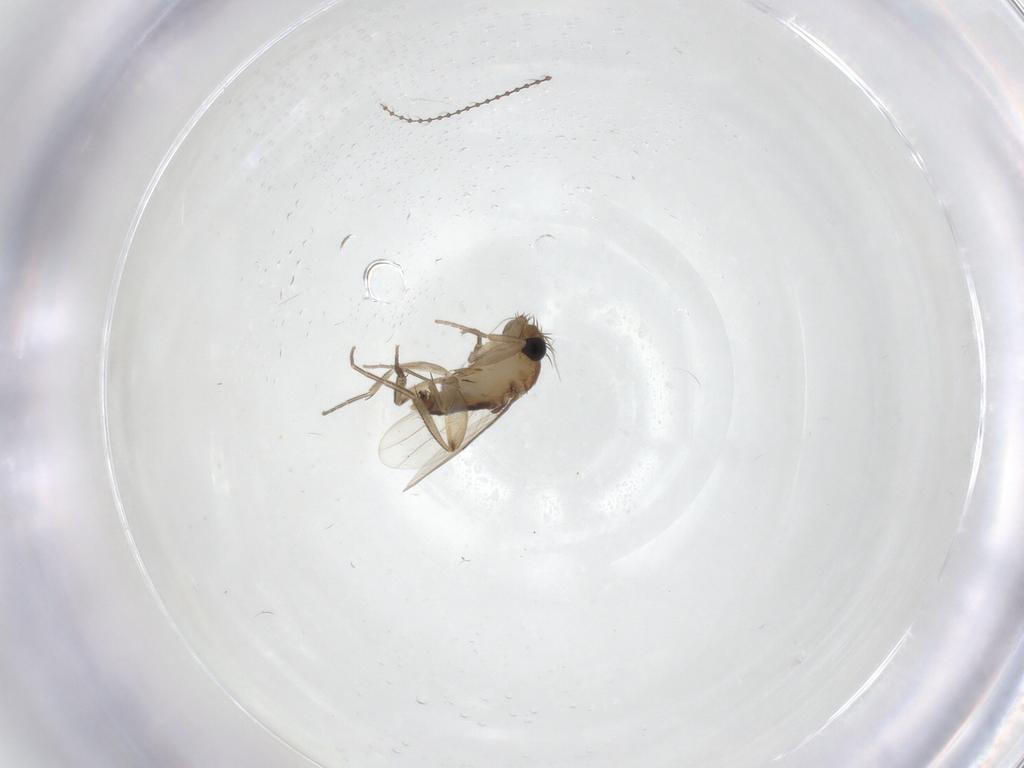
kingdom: Animalia
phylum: Arthropoda
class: Insecta
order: Diptera
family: Phoridae
